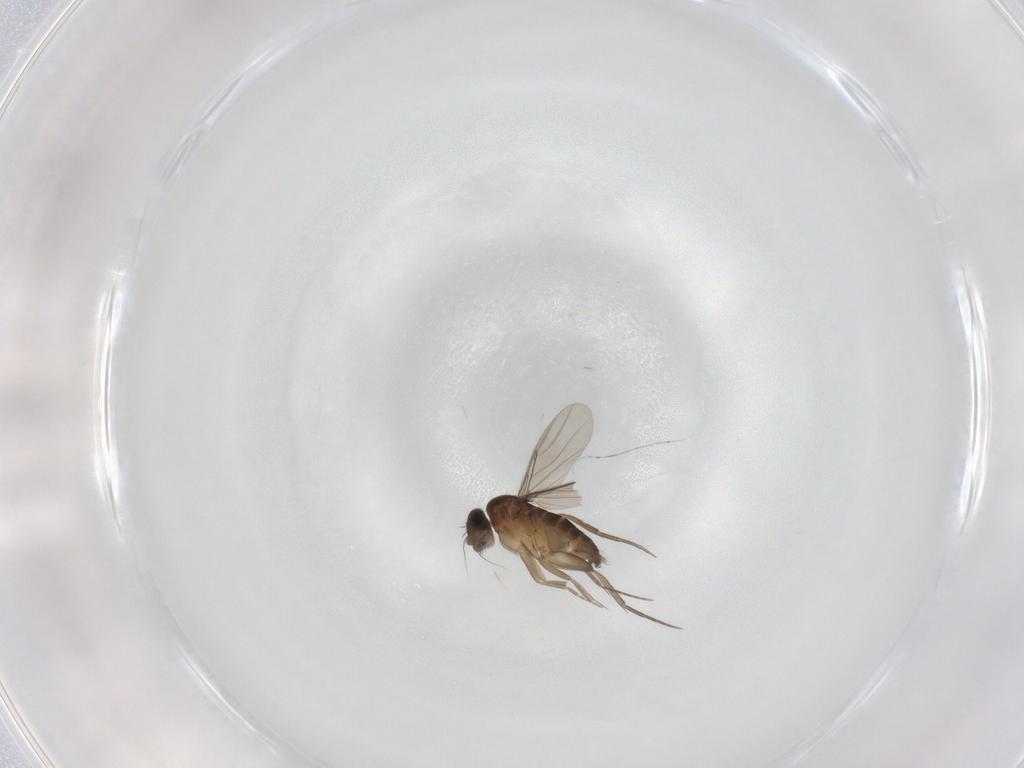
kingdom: Animalia
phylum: Arthropoda
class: Insecta
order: Diptera
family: Phoridae
